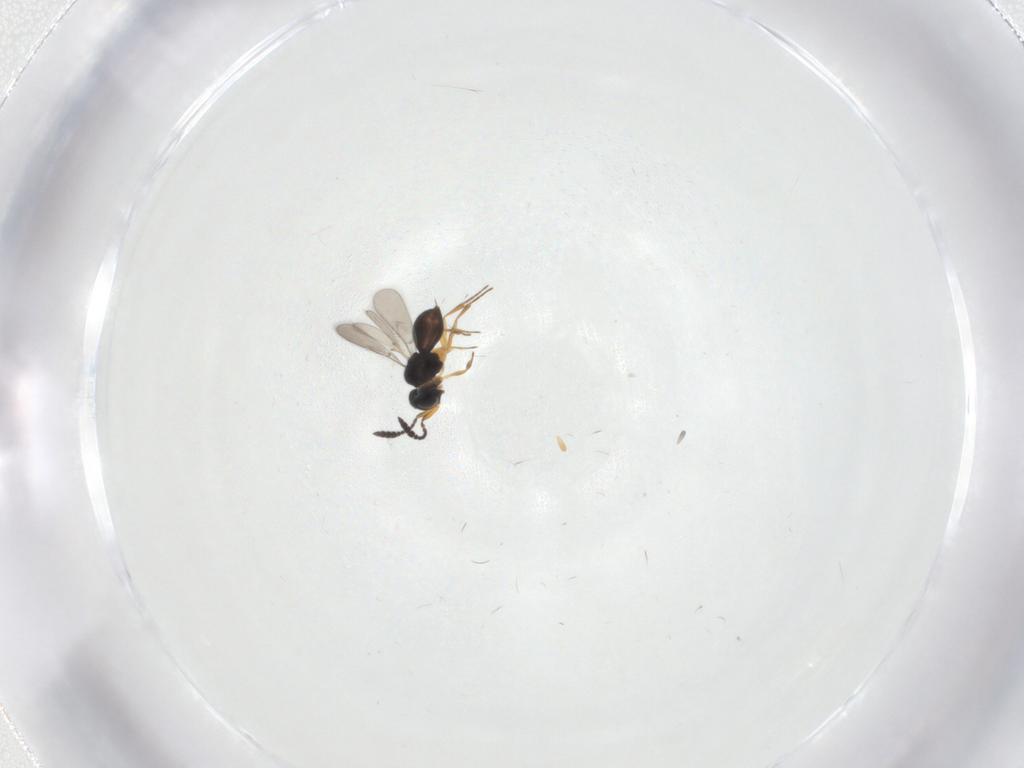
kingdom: Animalia
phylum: Arthropoda
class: Insecta
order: Hymenoptera
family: Scelionidae
